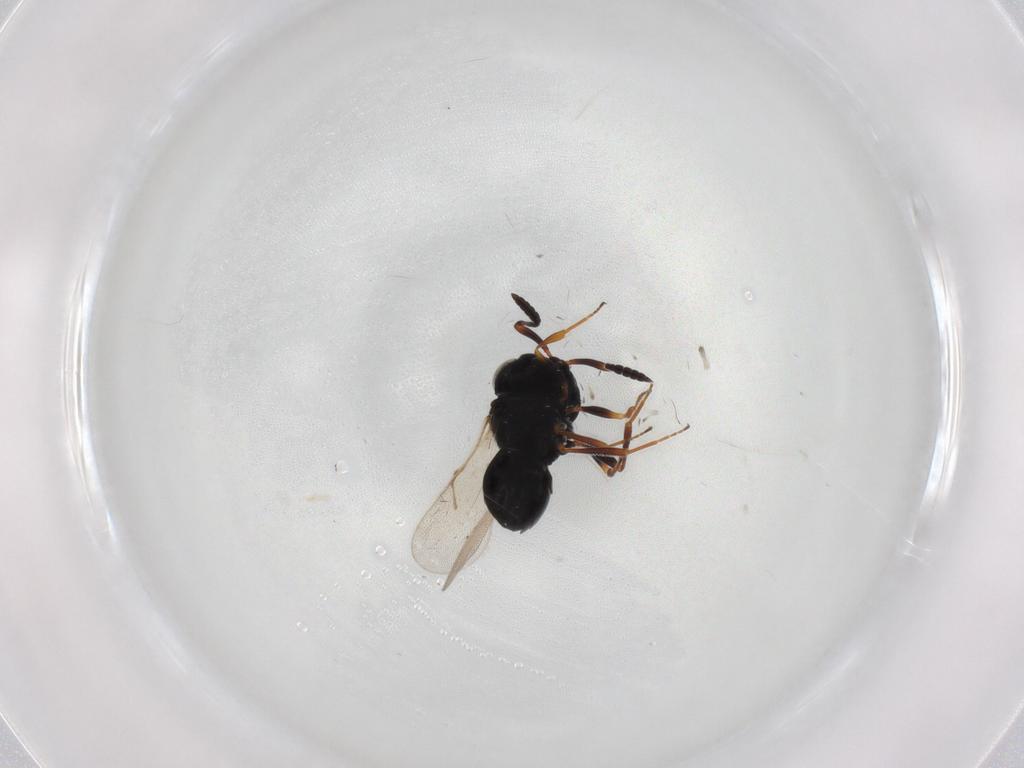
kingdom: Animalia
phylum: Arthropoda
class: Insecta
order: Hymenoptera
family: Scelionidae
